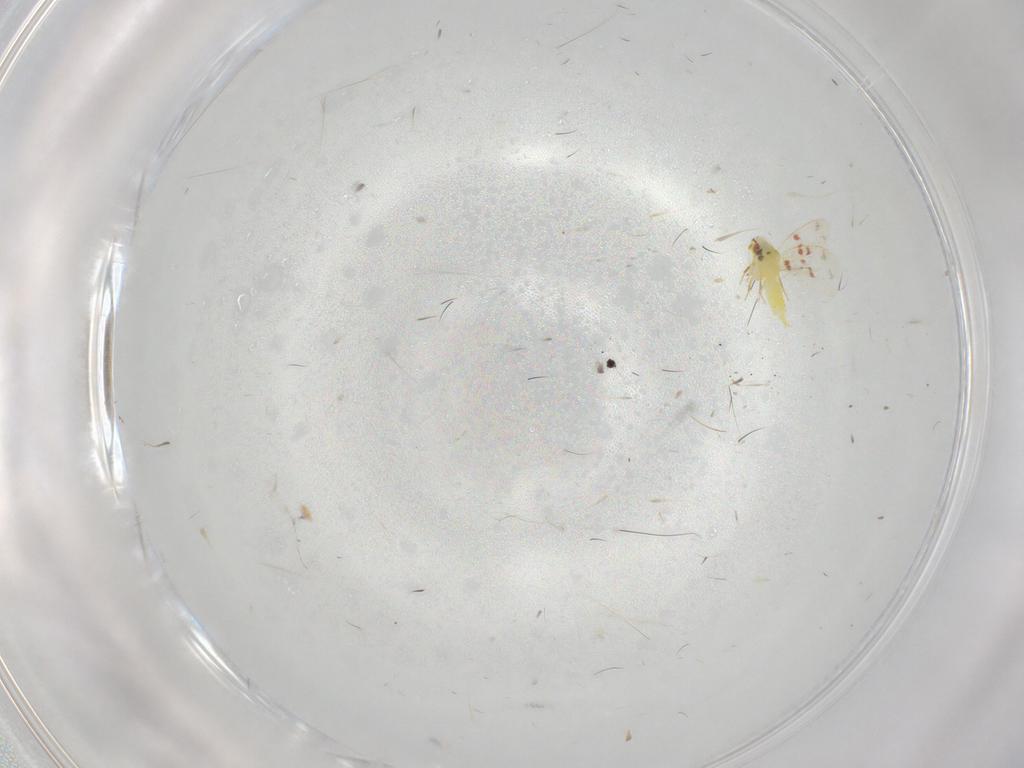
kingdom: Animalia
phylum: Arthropoda
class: Insecta
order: Hemiptera
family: Aleyrodidae
